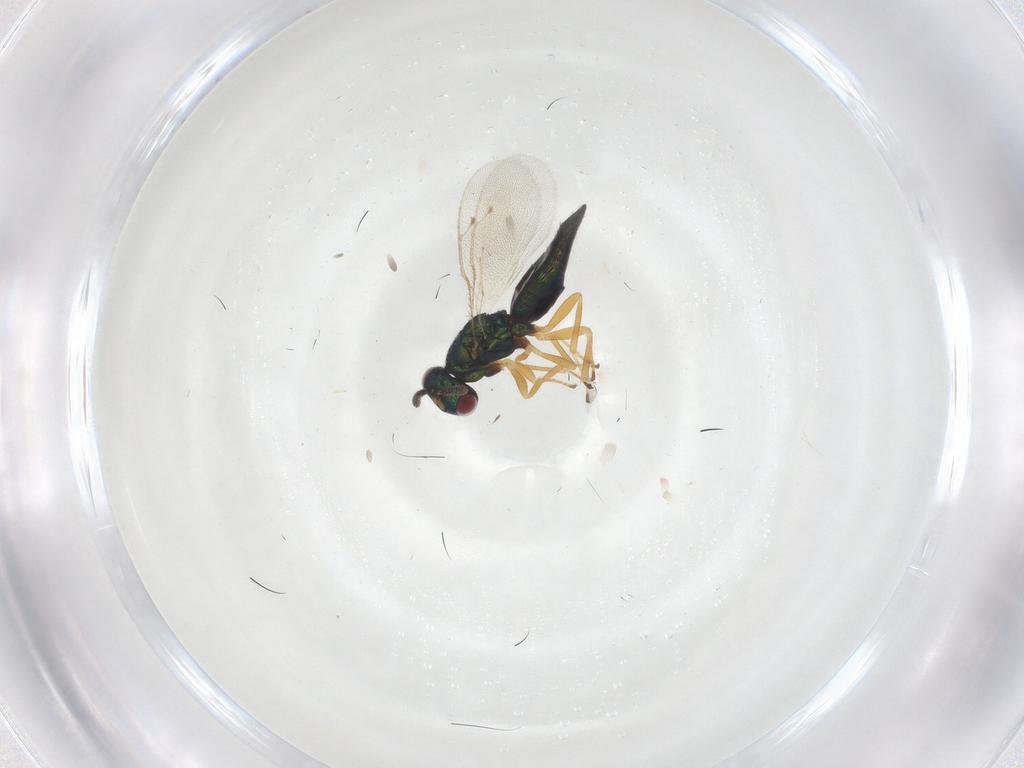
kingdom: Animalia
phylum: Arthropoda
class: Insecta
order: Hymenoptera
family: Pteromalidae
